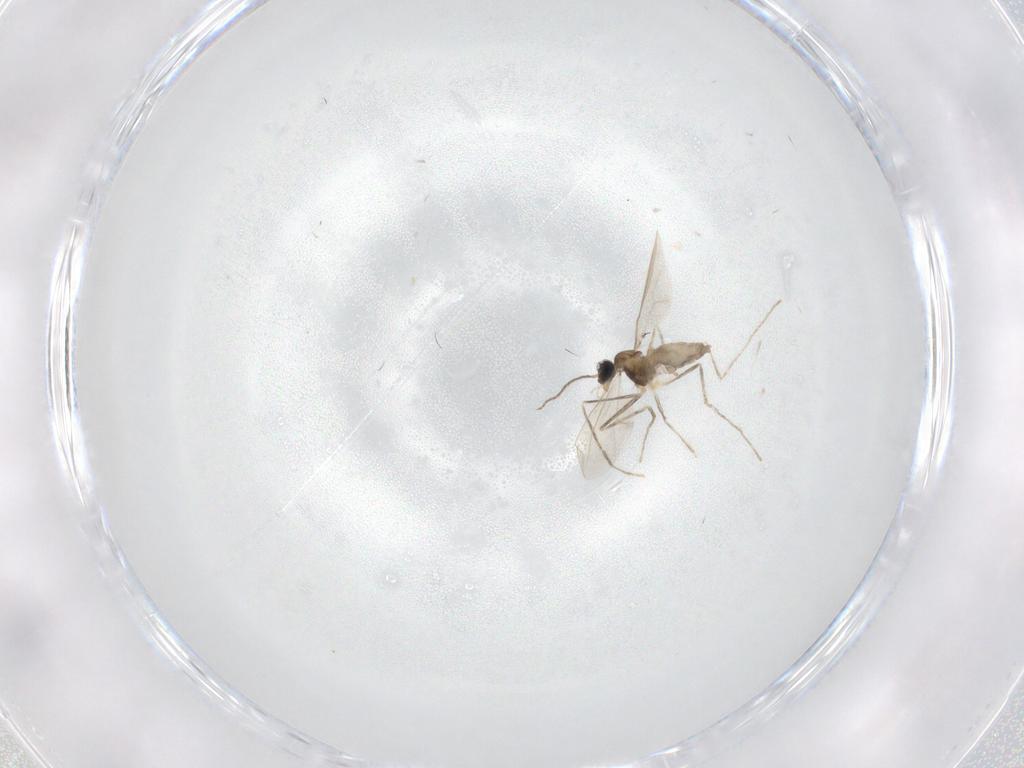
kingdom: Animalia
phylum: Arthropoda
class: Insecta
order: Diptera
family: Cecidomyiidae
